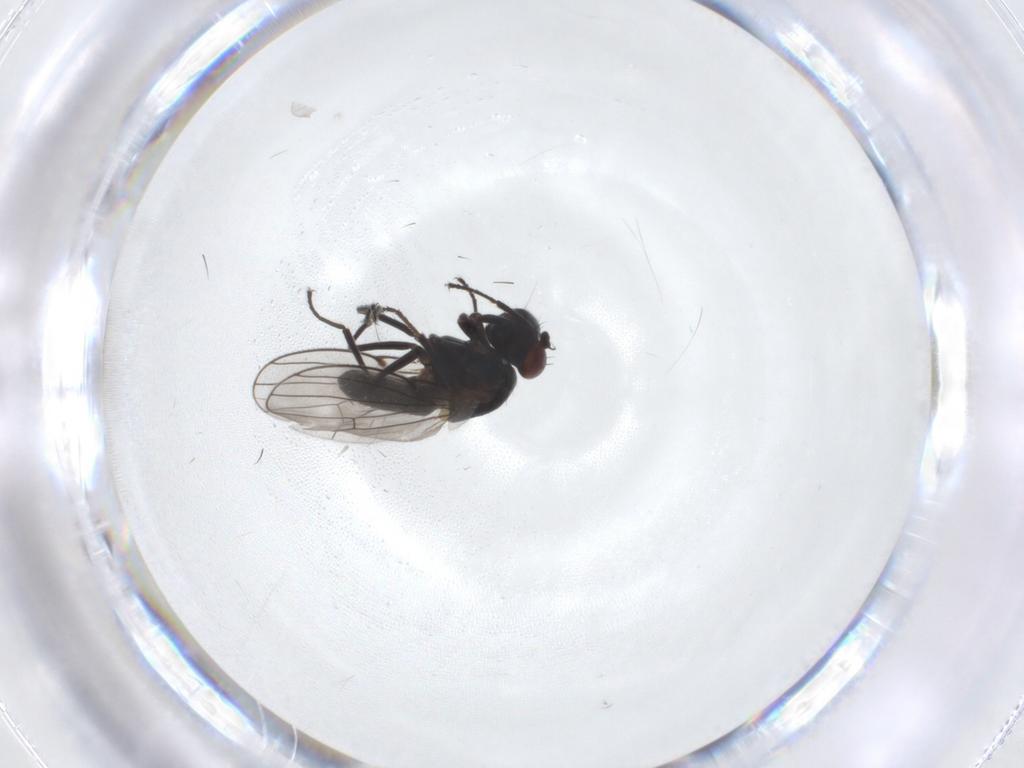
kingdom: Animalia
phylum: Arthropoda
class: Insecta
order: Diptera
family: Ephydridae
